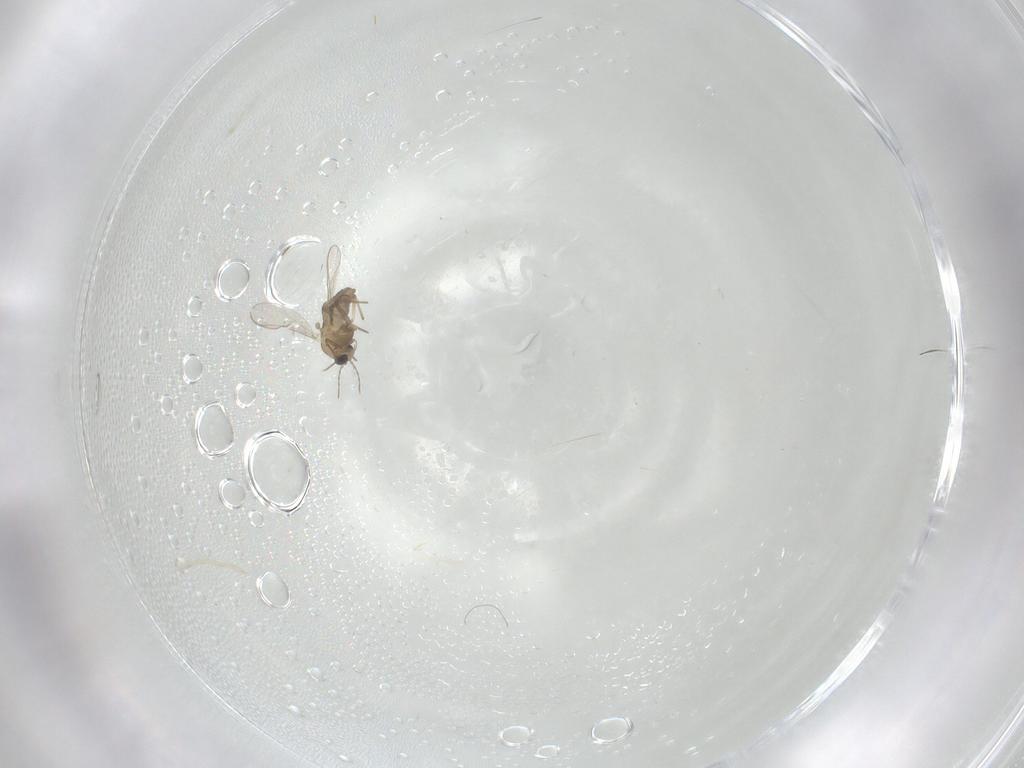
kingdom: Animalia
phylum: Arthropoda
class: Insecta
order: Diptera
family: Chironomidae
